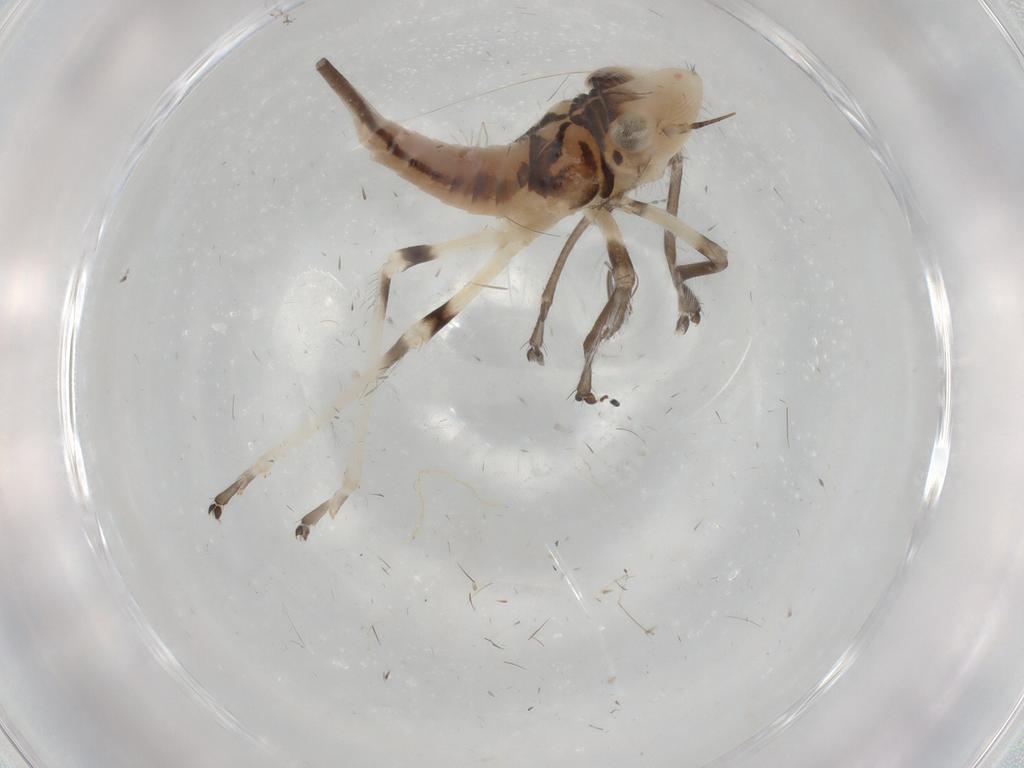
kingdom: Animalia
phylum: Arthropoda
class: Insecta
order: Hemiptera
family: Cicadellidae
